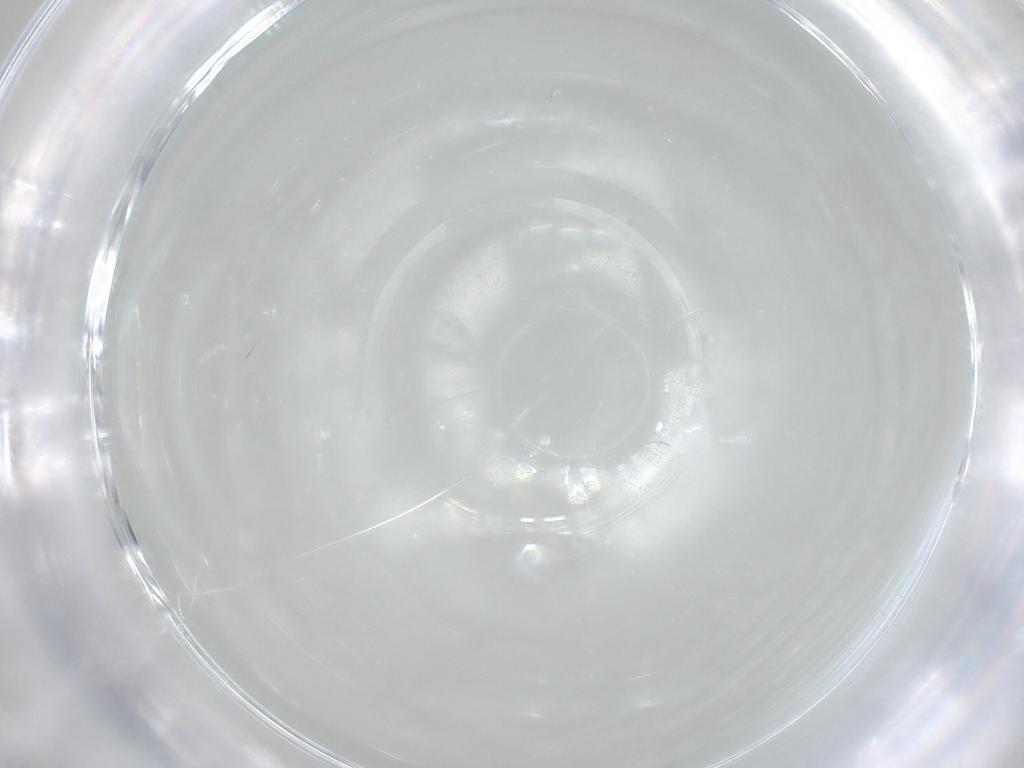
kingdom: Animalia
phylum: Arthropoda
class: Arachnida
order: Trombidiformes
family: Anystidae
